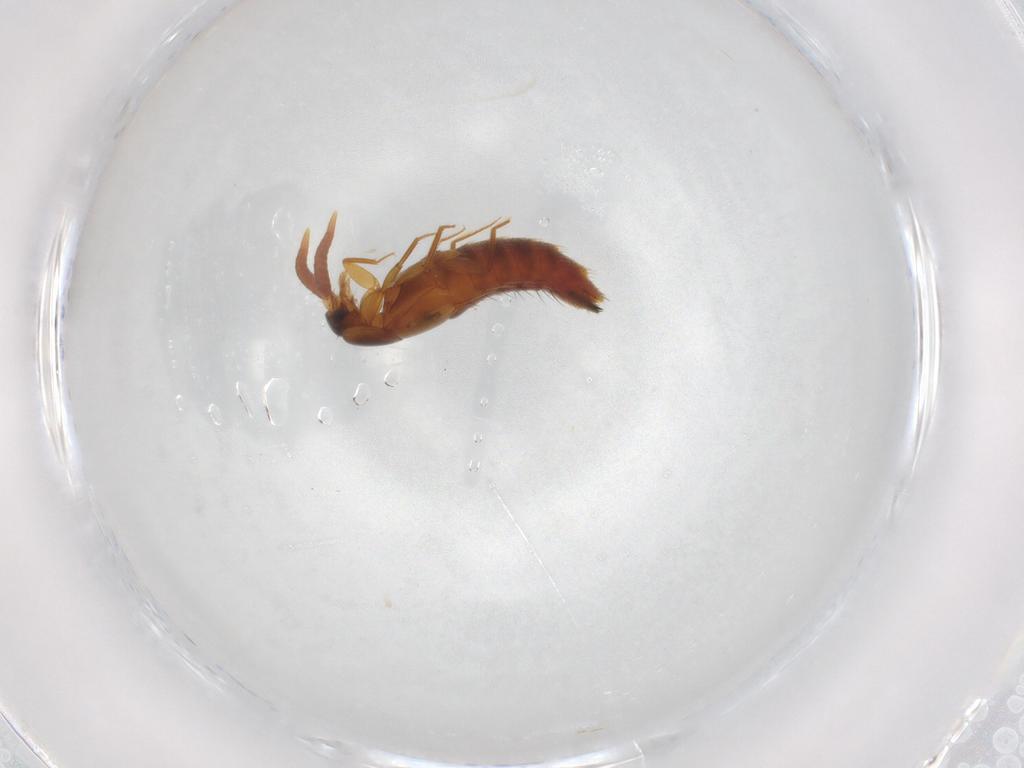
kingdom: Animalia
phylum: Arthropoda
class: Insecta
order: Coleoptera
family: Staphylinidae
